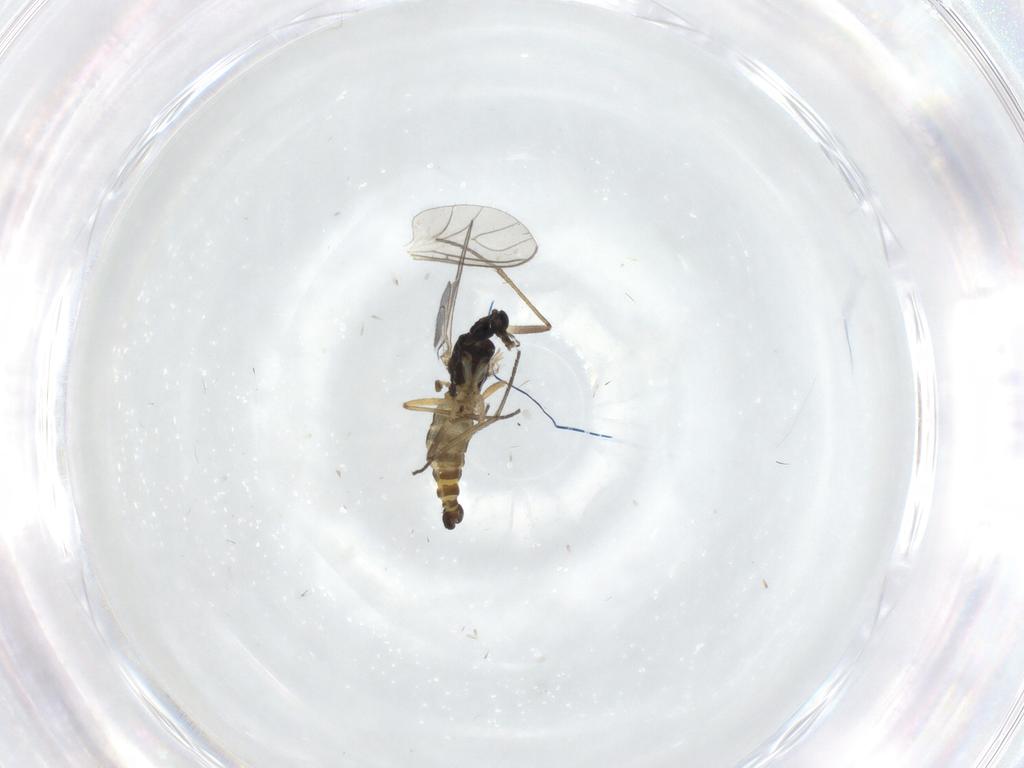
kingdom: Animalia
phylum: Arthropoda
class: Insecta
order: Diptera
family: Sciaridae
